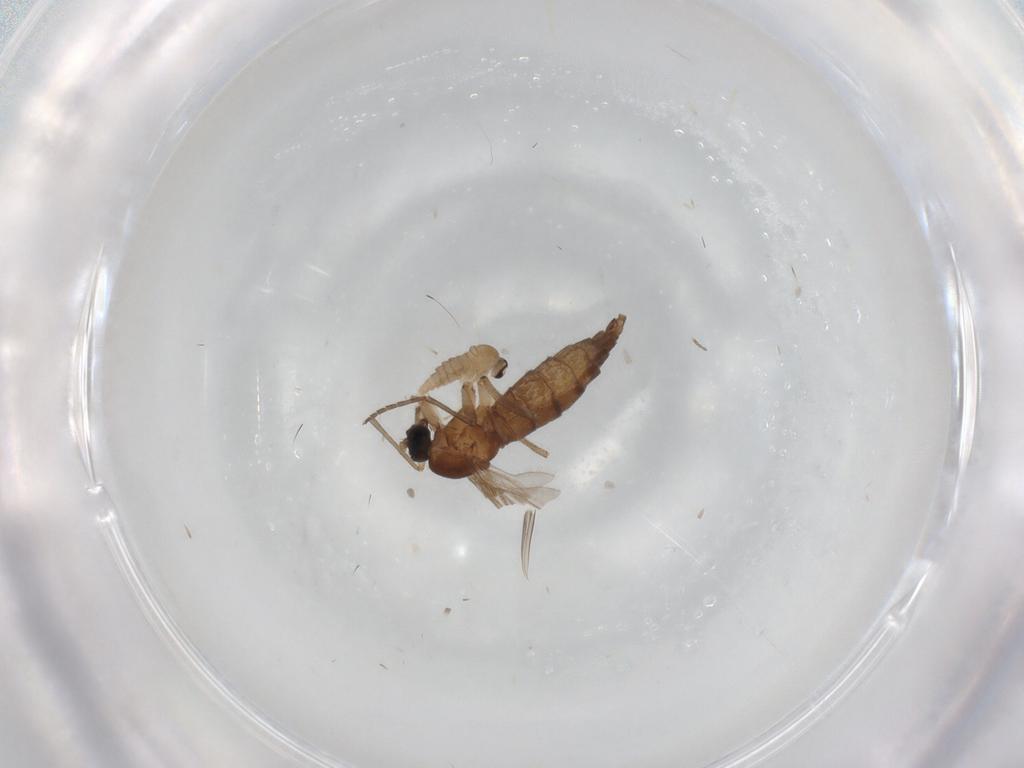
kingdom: Animalia
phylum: Arthropoda
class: Insecta
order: Diptera
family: Sciaridae
